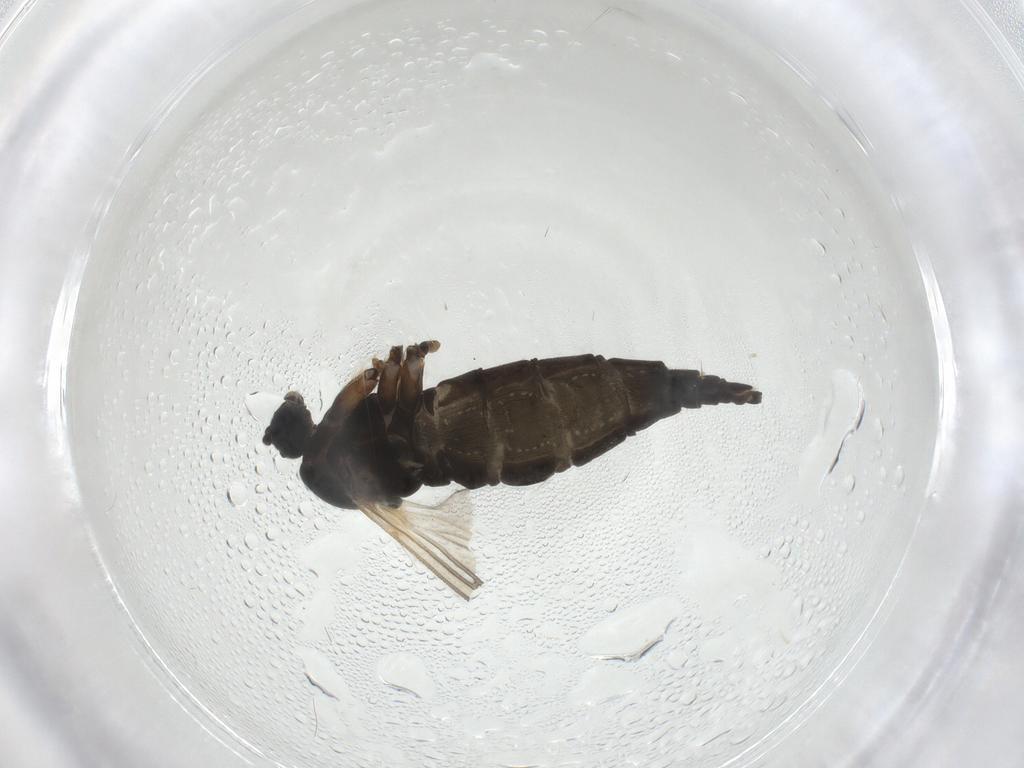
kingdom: Animalia
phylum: Arthropoda
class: Insecta
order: Diptera
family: Sciaridae
